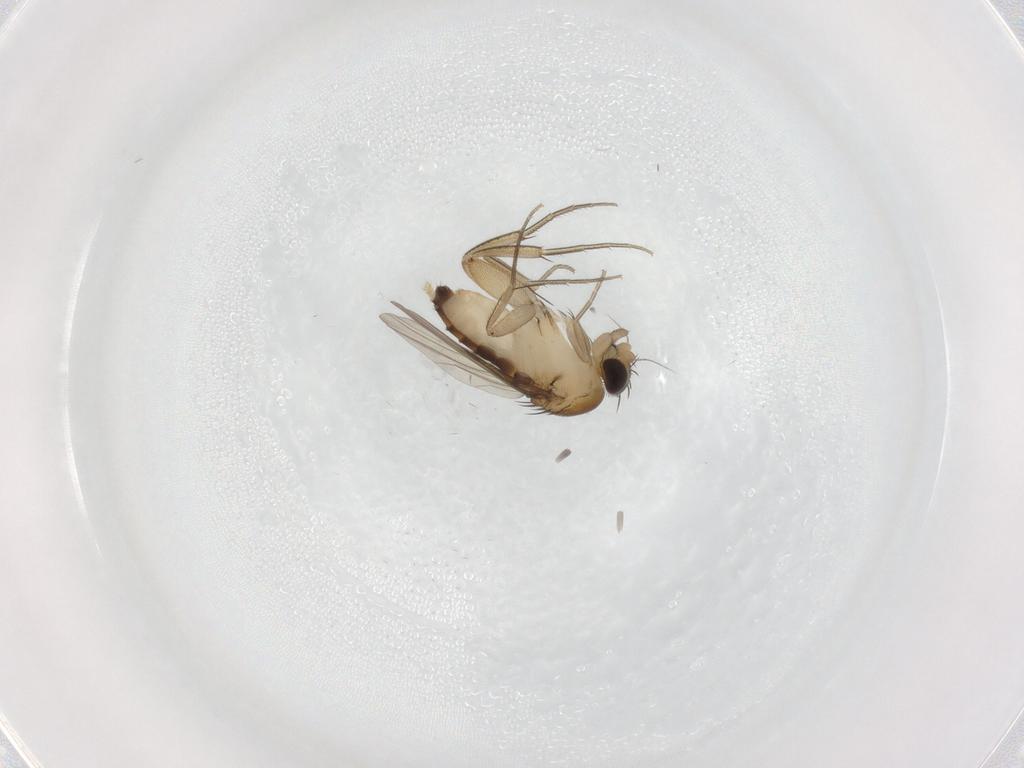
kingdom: Animalia
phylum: Arthropoda
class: Insecta
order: Diptera
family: Phoridae
